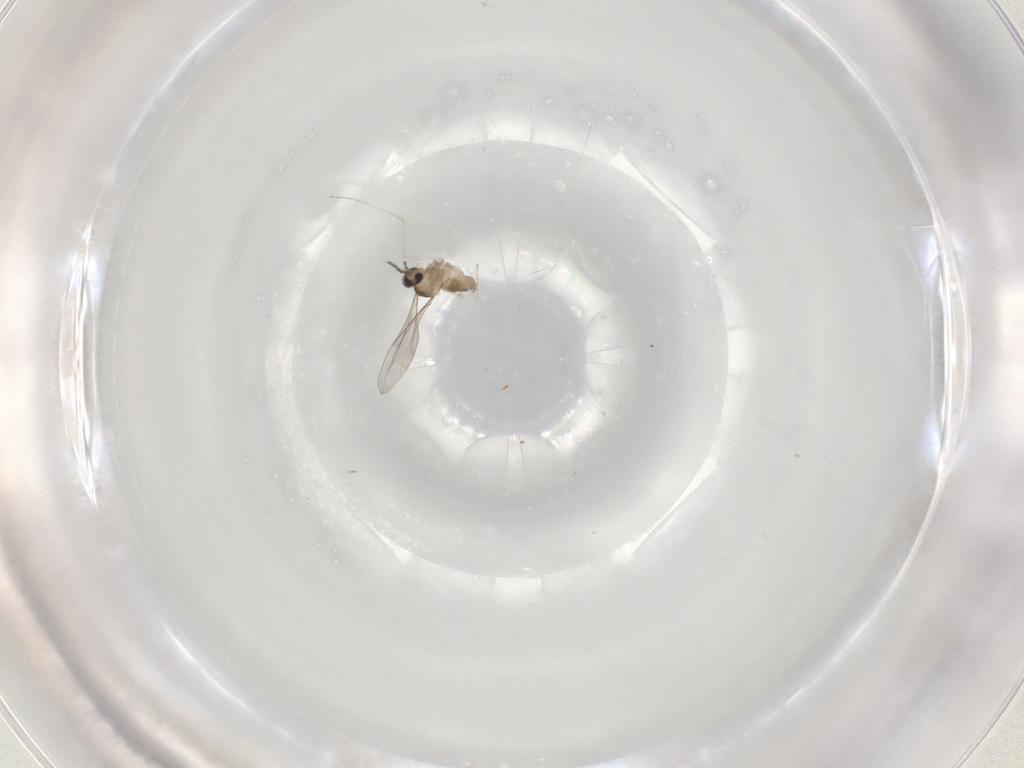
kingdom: Animalia
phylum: Arthropoda
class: Insecta
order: Diptera
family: Cecidomyiidae
